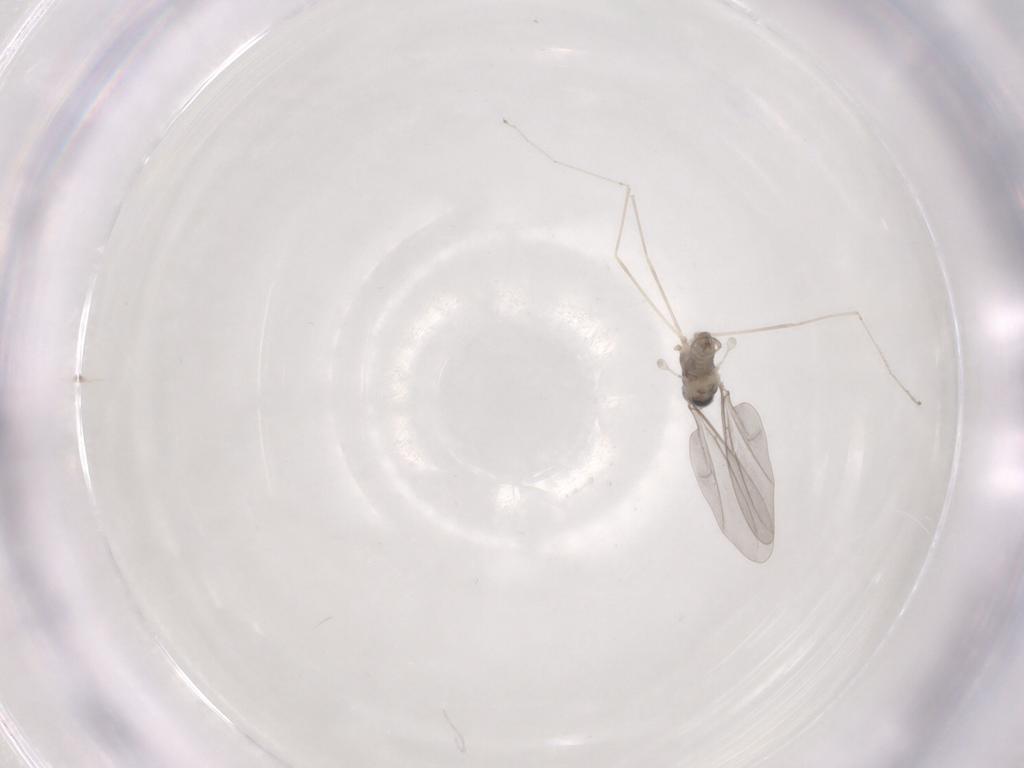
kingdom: Animalia
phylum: Arthropoda
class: Insecta
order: Diptera
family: Cecidomyiidae
